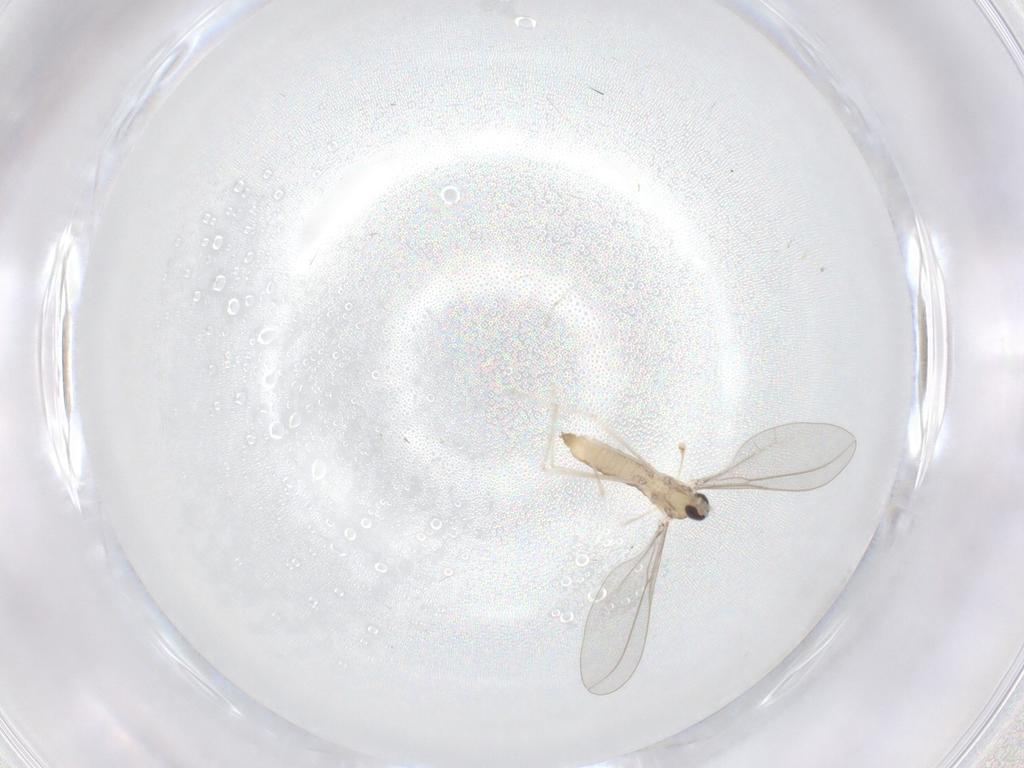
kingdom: Animalia
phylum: Arthropoda
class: Insecta
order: Diptera
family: Cecidomyiidae
